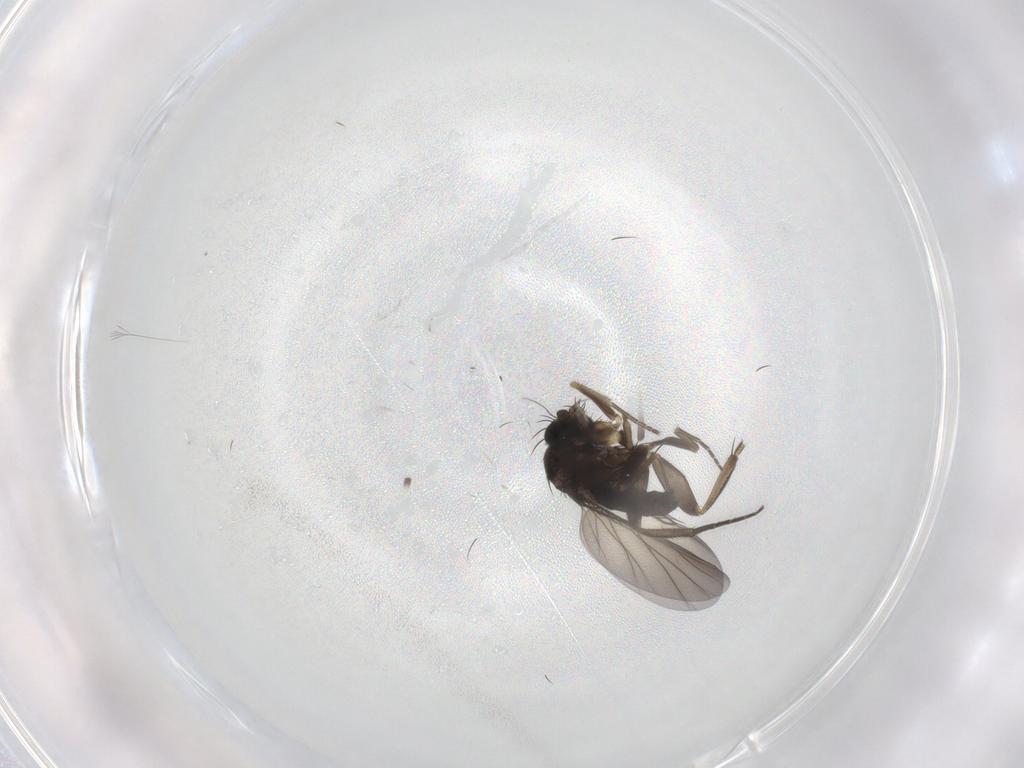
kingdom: Animalia
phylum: Arthropoda
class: Insecta
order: Diptera
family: Phoridae
